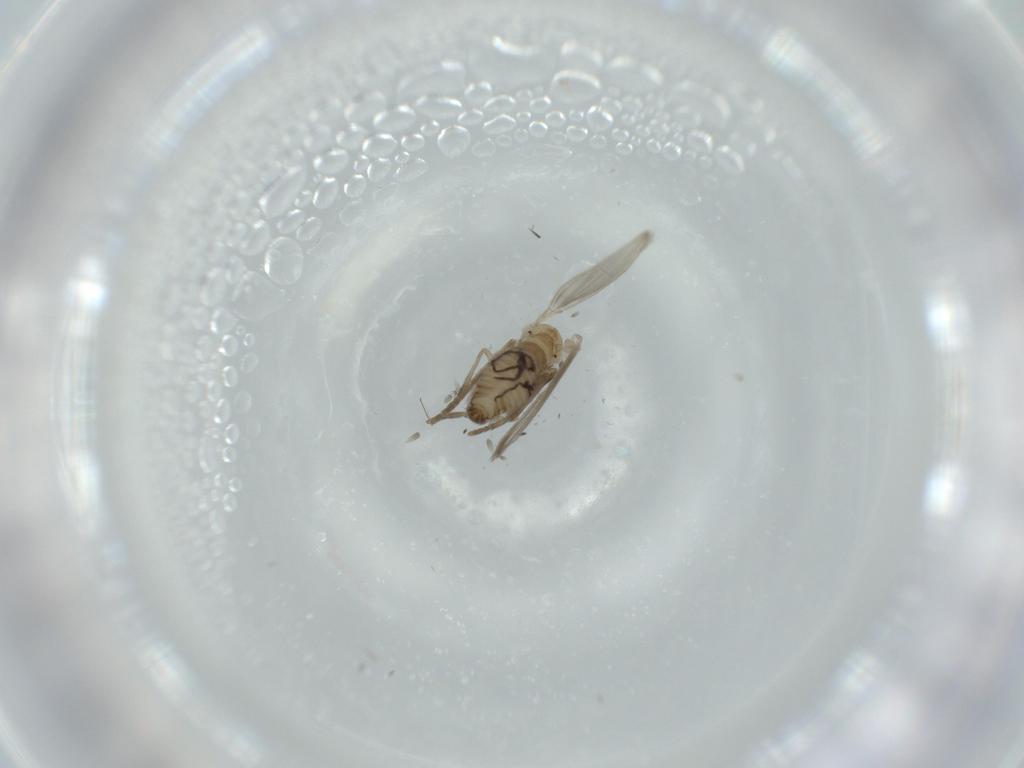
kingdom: Animalia
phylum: Arthropoda
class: Insecta
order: Diptera
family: Psychodidae
